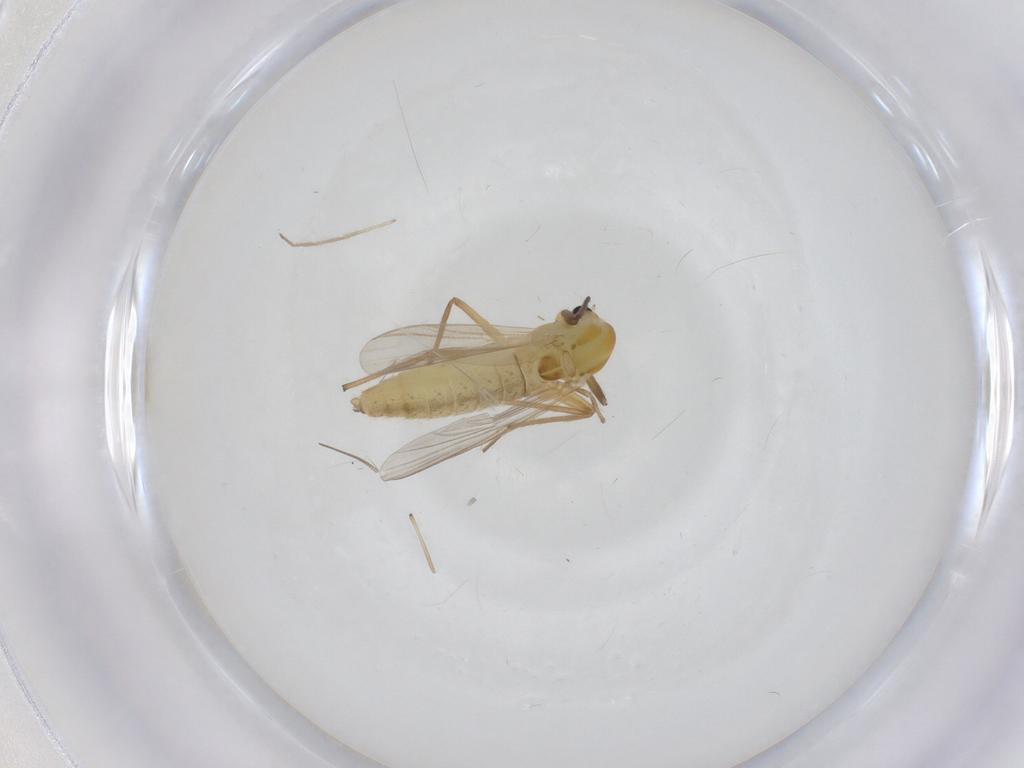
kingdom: Animalia
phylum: Arthropoda
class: Insecta
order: Diptera
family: Chironomidae
